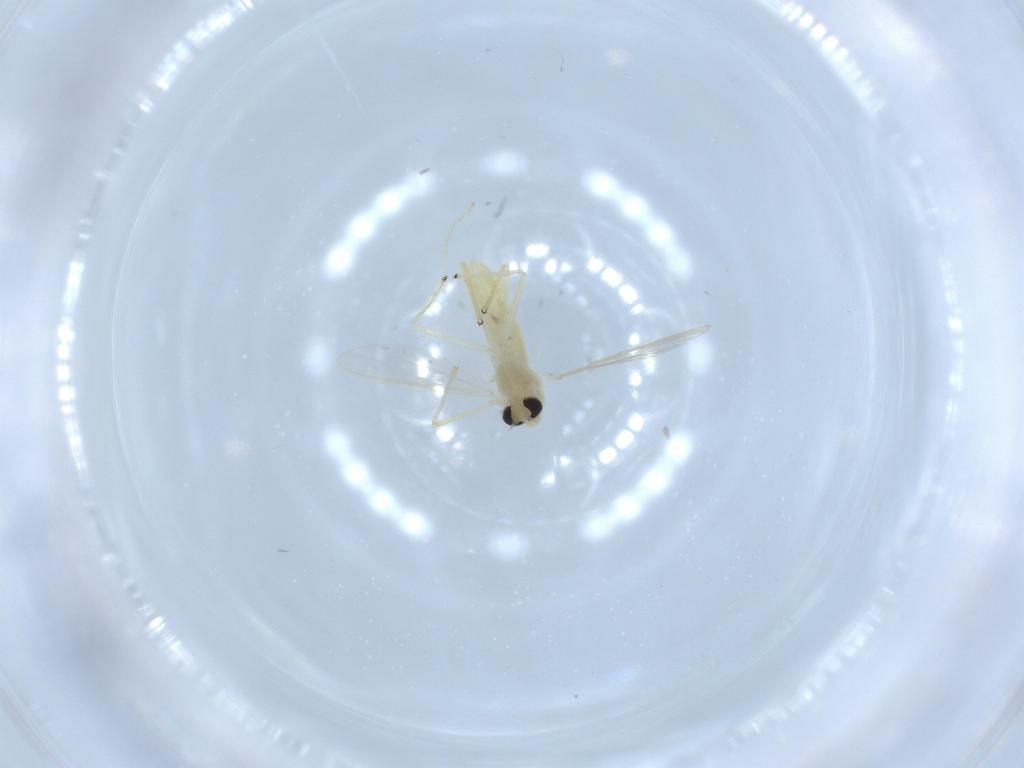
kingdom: Animalia
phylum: Arthropoda
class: Insecta
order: Diptera
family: Chironomidae
